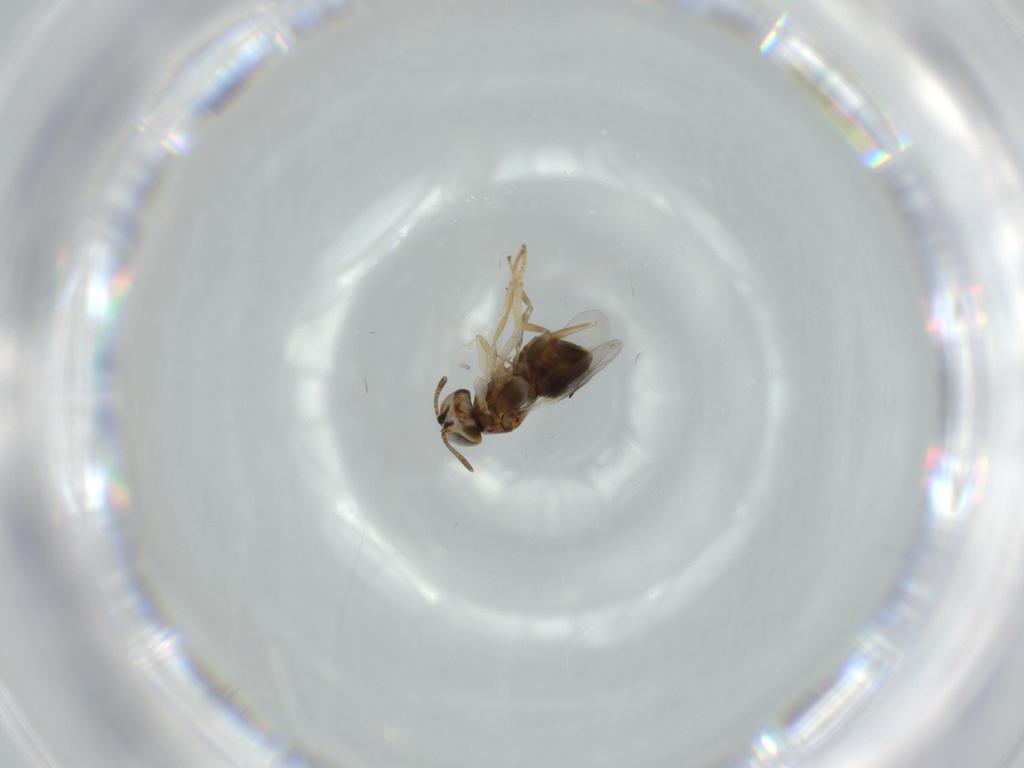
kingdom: Animalia
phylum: Arthropoda
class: Insecta
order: Hymenoptera
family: Crabronidae
